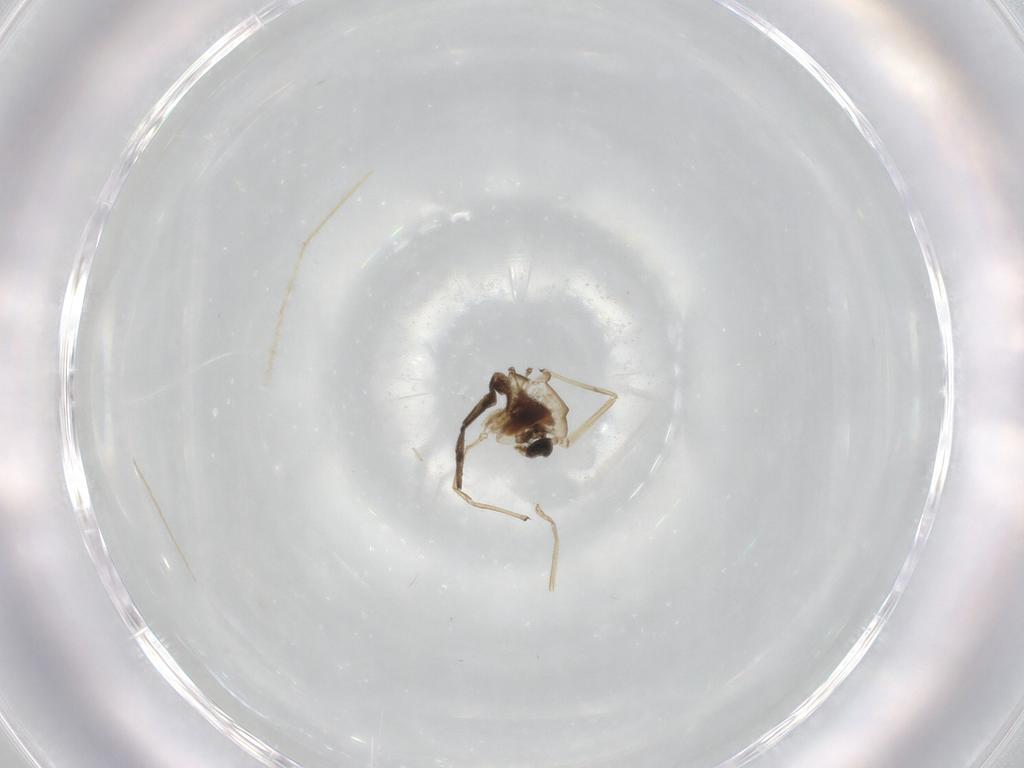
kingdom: Animalia
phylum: Arthropoda
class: Insecta
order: Diptera
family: Chironomidae
